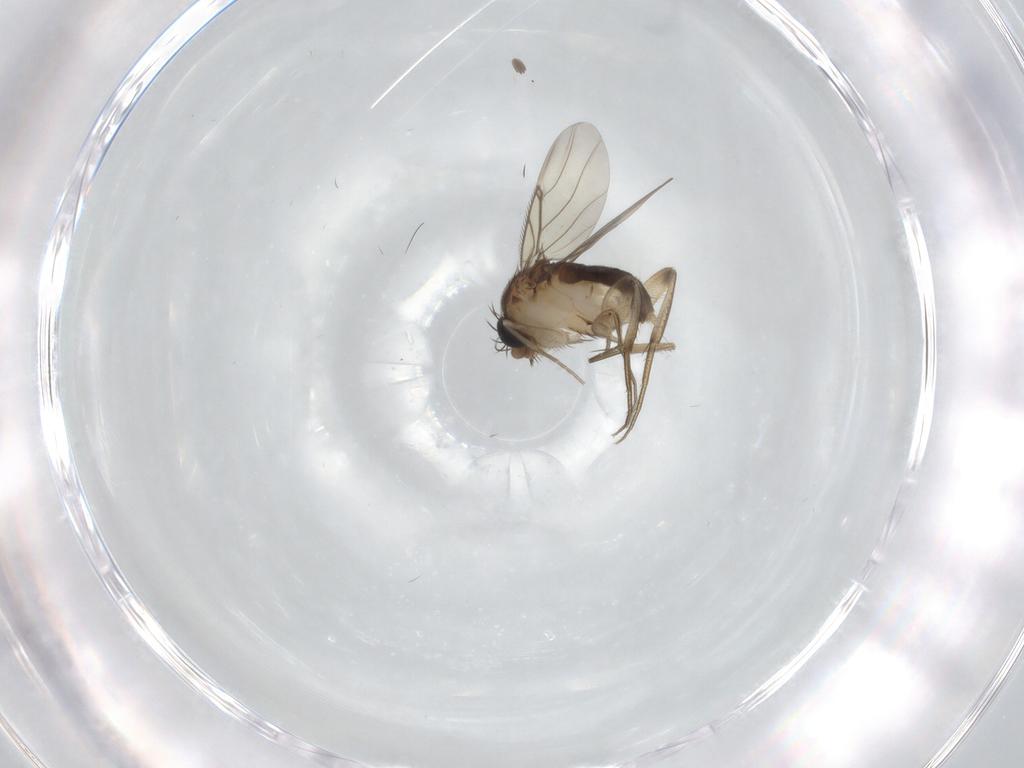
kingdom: Animalia
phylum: Arthropoda
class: Insecta
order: Diptera
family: Phoridae
